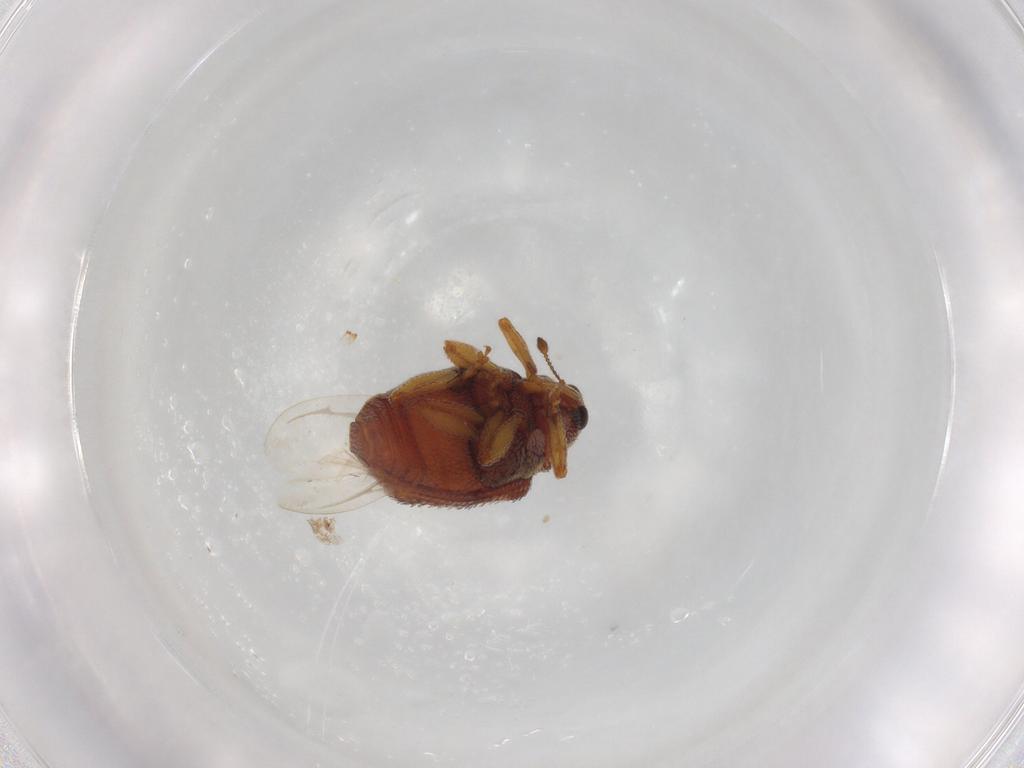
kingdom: Animalia
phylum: Arthropoda
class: Insecta
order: Coleoptera
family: Curculionidae
